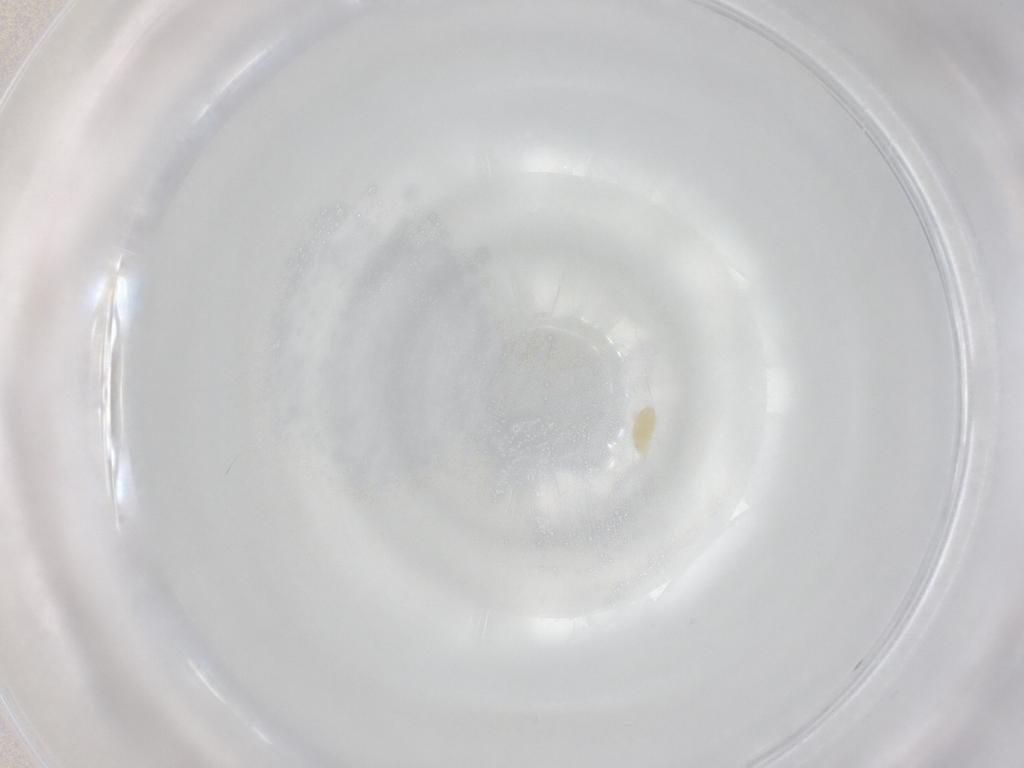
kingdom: Animalia
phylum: Arthropoda
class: Arachnida
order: Trombidiformes
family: Eupodidae
